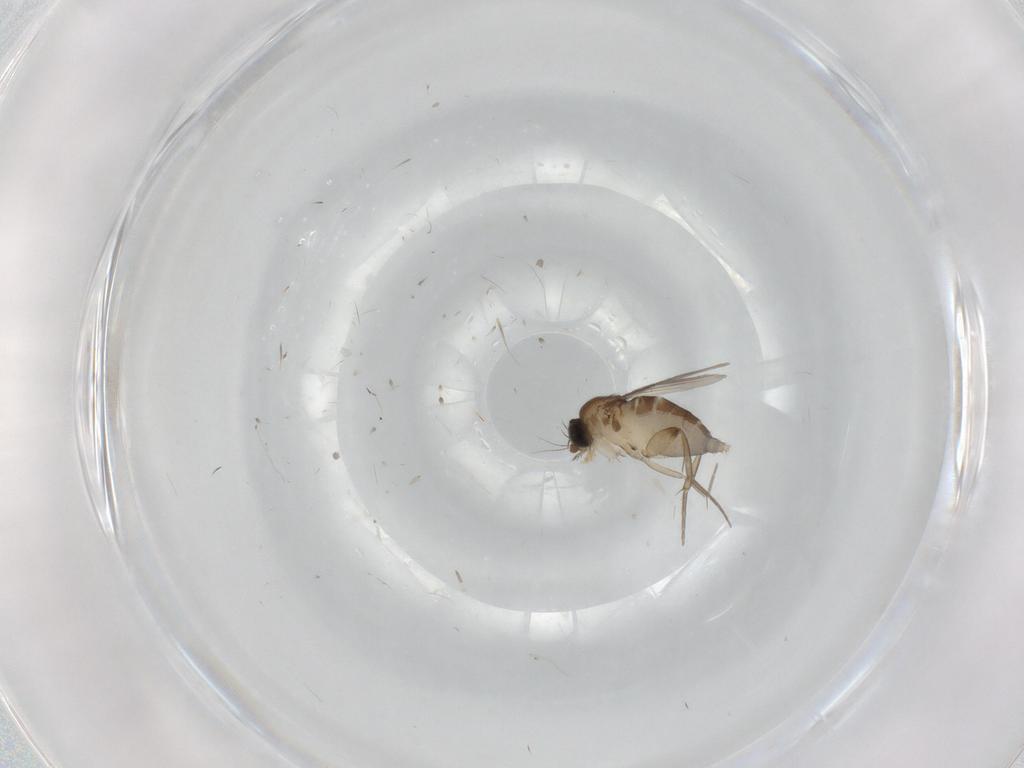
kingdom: Animalia
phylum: Arthropoda
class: Insecta
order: Diptera
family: Phoridae
